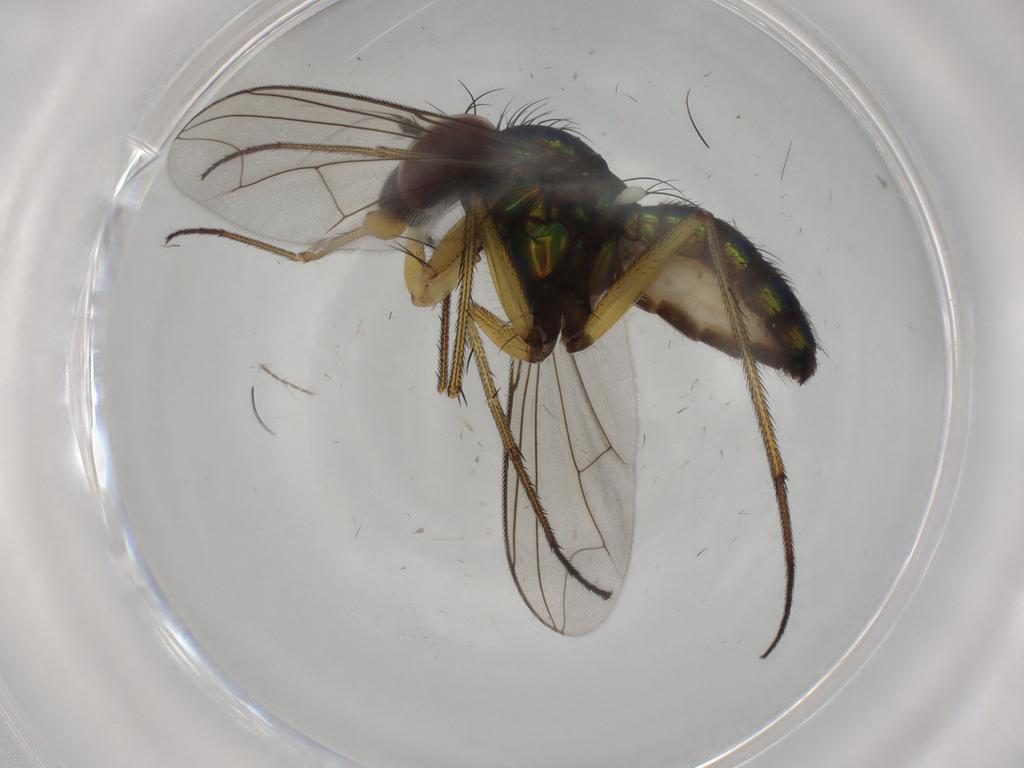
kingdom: Animalia
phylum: Arthropoda
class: Insecta
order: Diptera
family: Dolichopodidae
